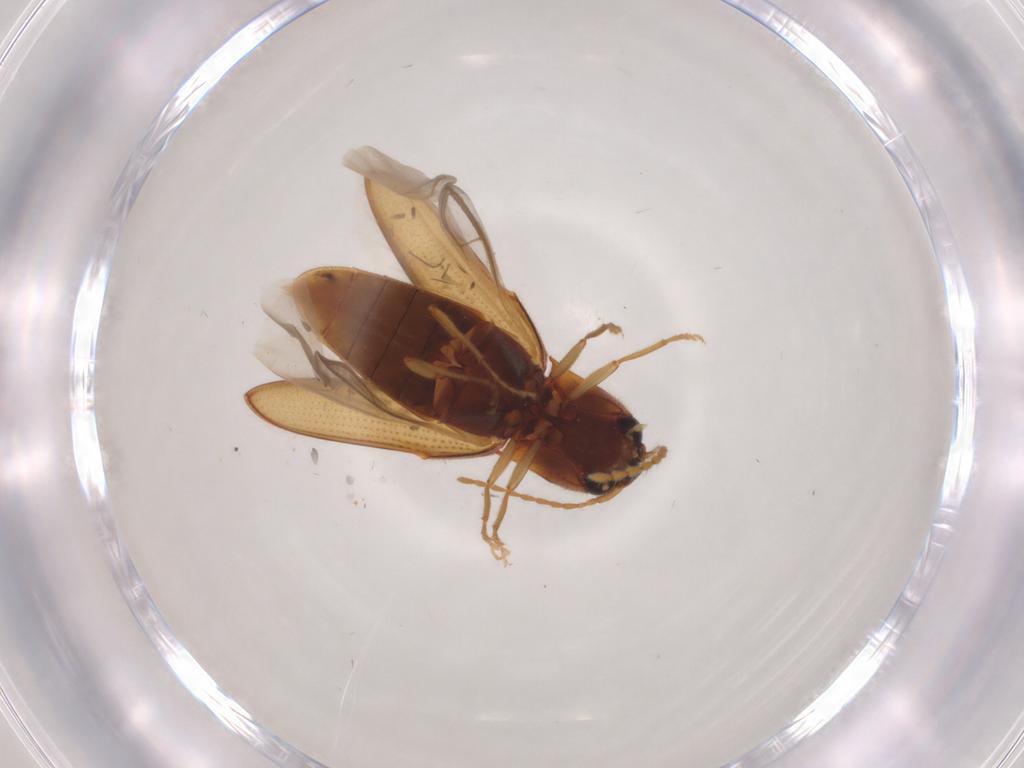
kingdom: Animalia
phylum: Arthropoda
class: Insecta
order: Coleoptera
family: Elateridae
